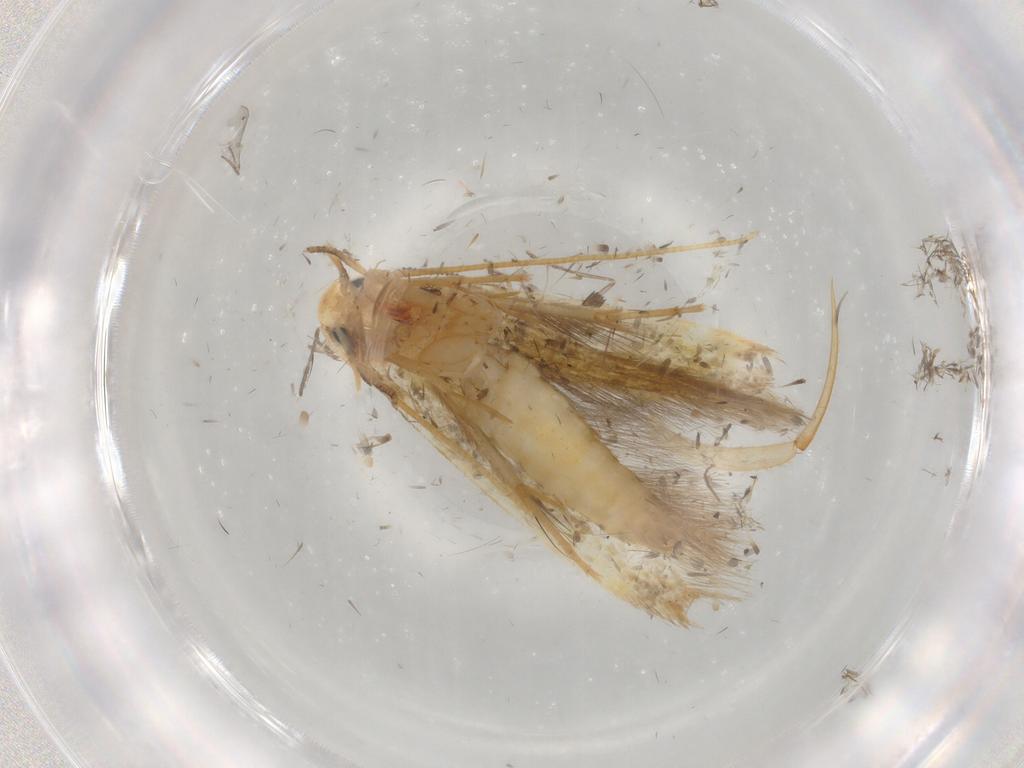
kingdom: Animalia
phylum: Arthropoda
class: Insecta
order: Lepidoptera
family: Tineidae
